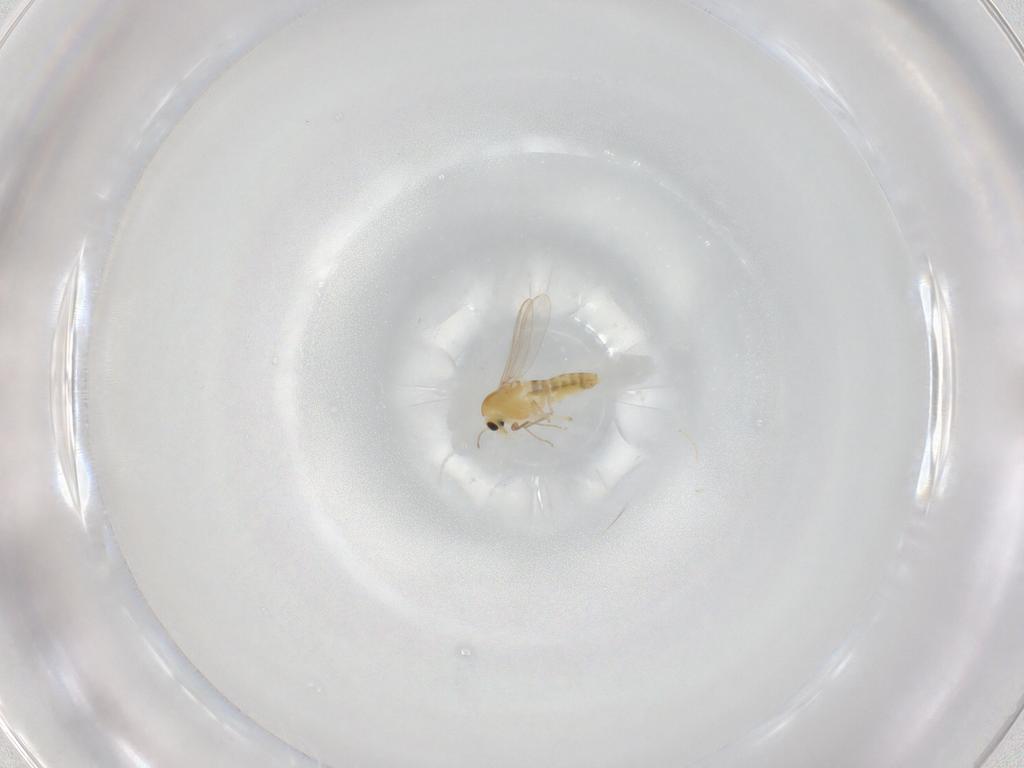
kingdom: Animalia
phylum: Arthropoda
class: Insecta
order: Diptera
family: Chironomidae
